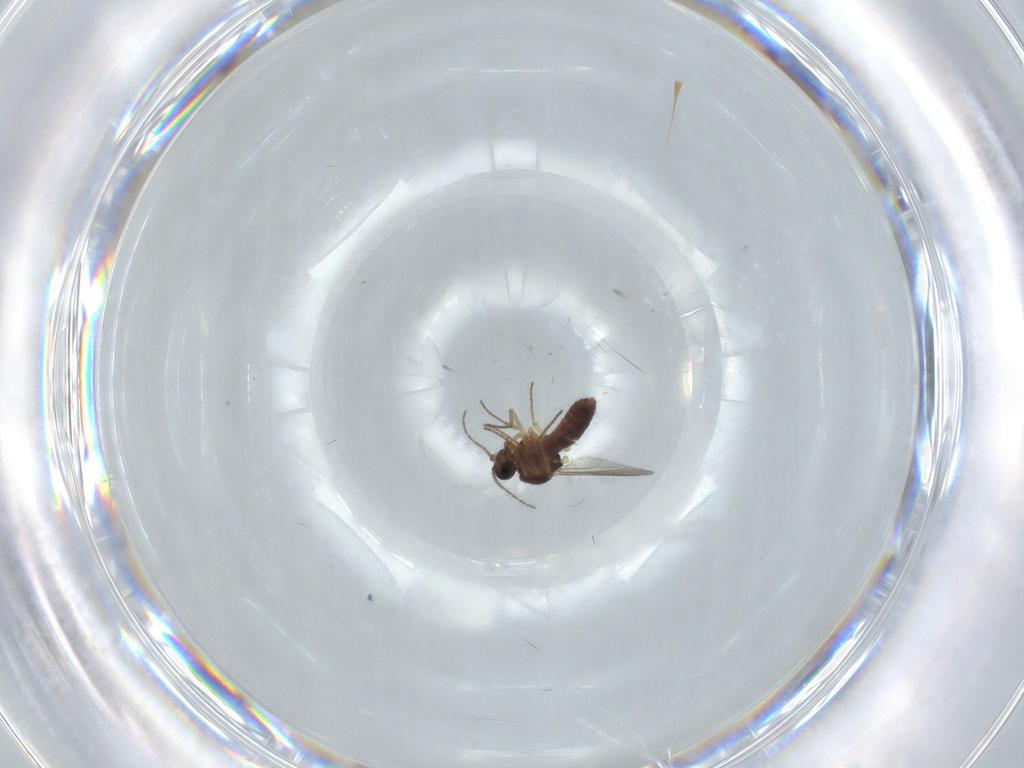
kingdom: Animalia
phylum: Arthropoda
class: Insecta
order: Diptera
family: Ceratopogonidae
